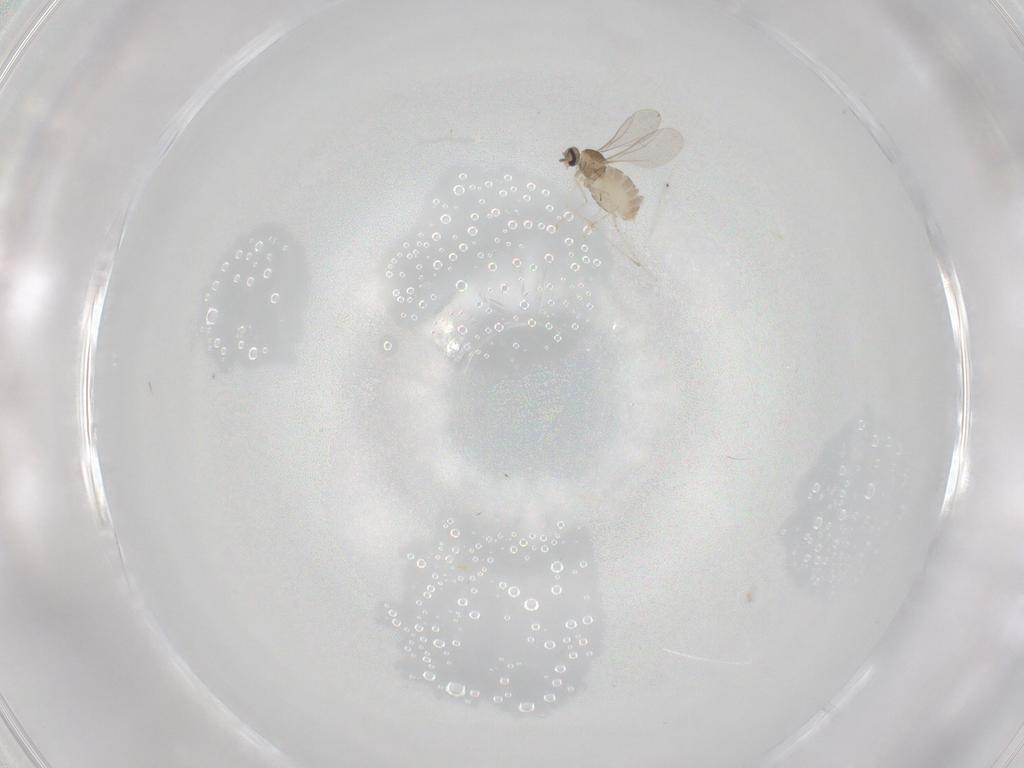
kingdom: Animalia
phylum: Arthropoda
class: Insecta
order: Diptera
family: Cecidomyiidae
